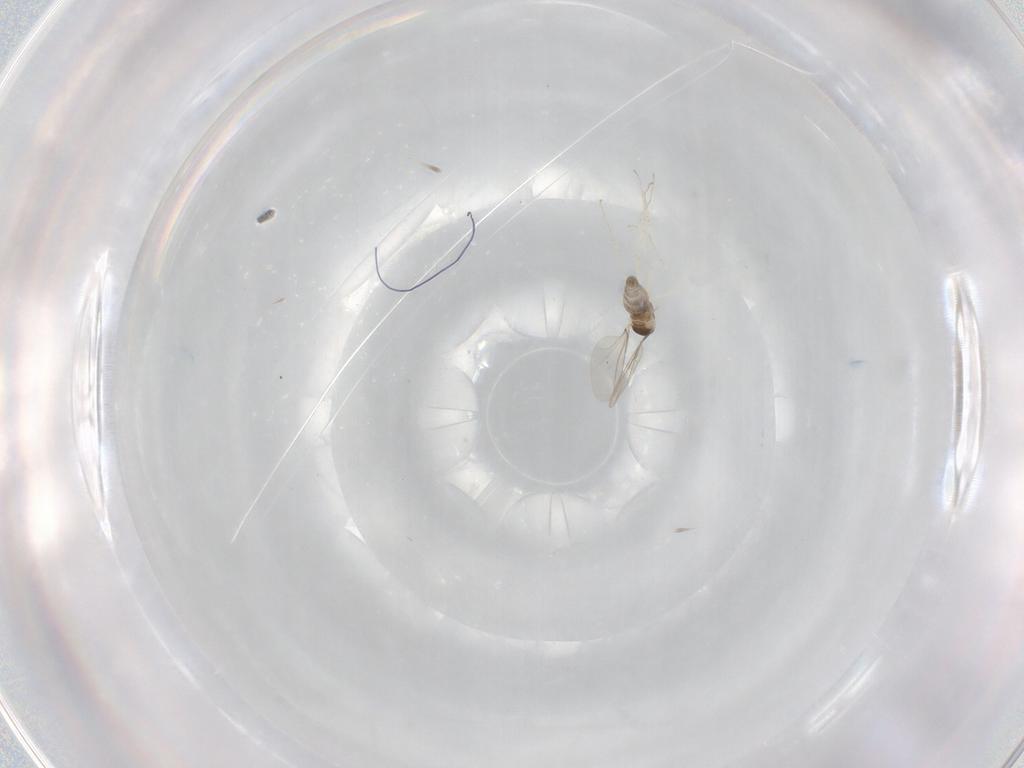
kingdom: Animalia
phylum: Arthropoda
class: Insecta
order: Diptera
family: Cecidomyiidae
